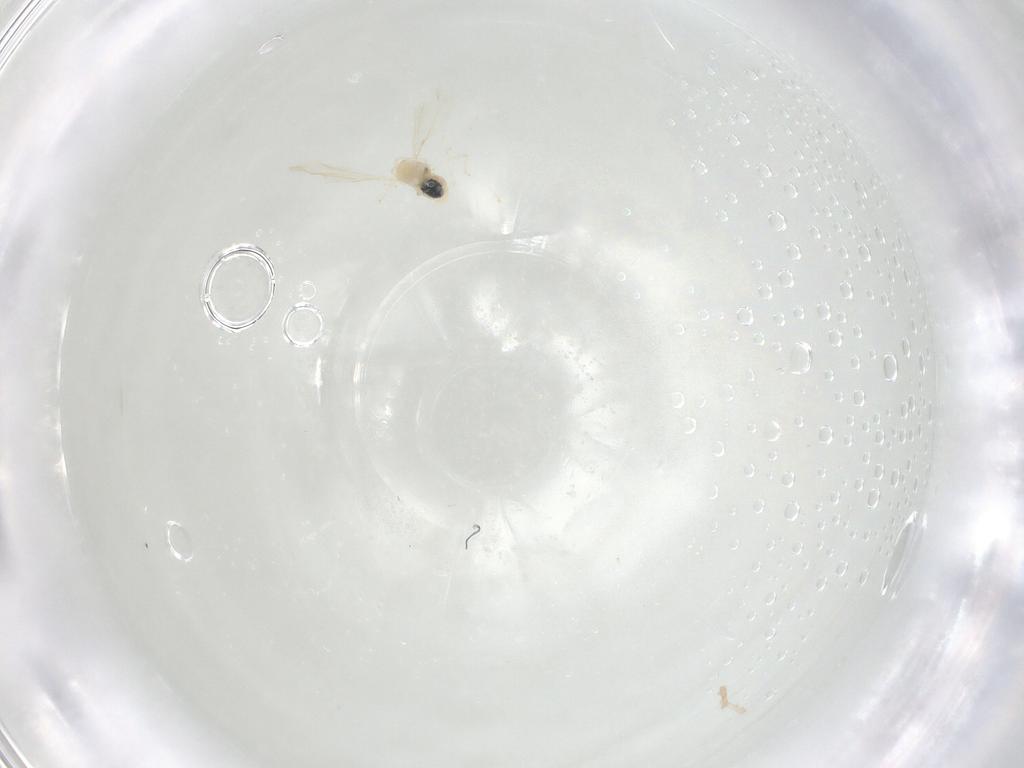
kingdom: Animalia
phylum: Arthropoda
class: Insecta
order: Diptera
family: Cecidomyiidae
